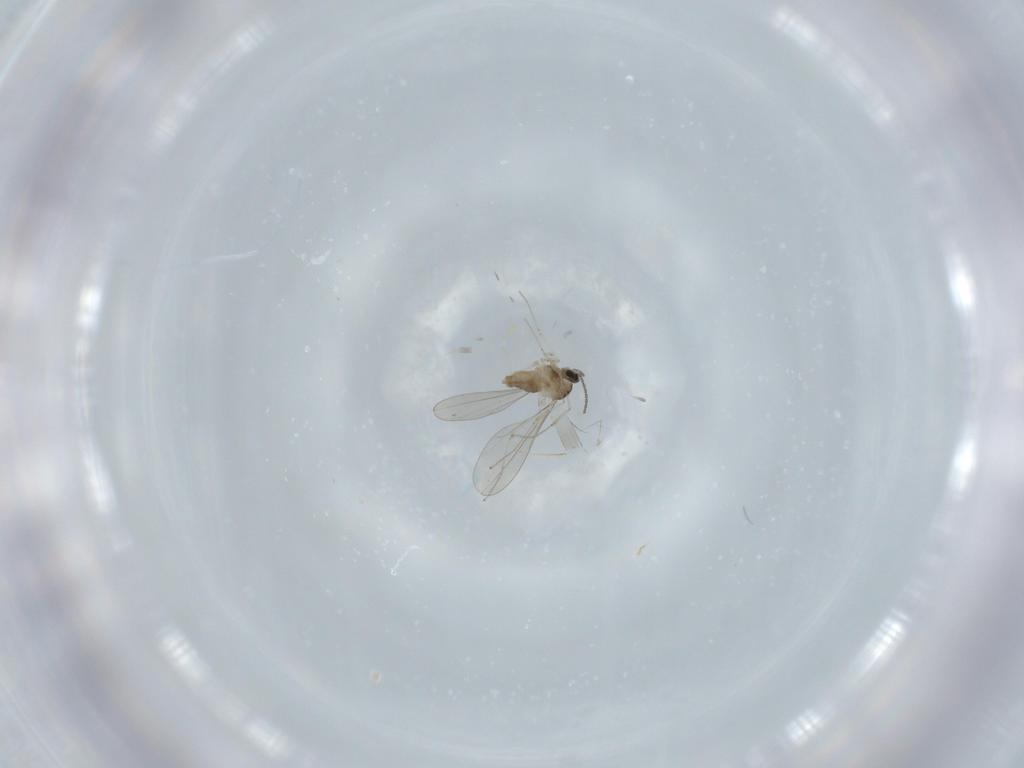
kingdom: Animalia
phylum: Arthropoda
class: Insecta
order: Diptera
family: Cecidomyiidae
